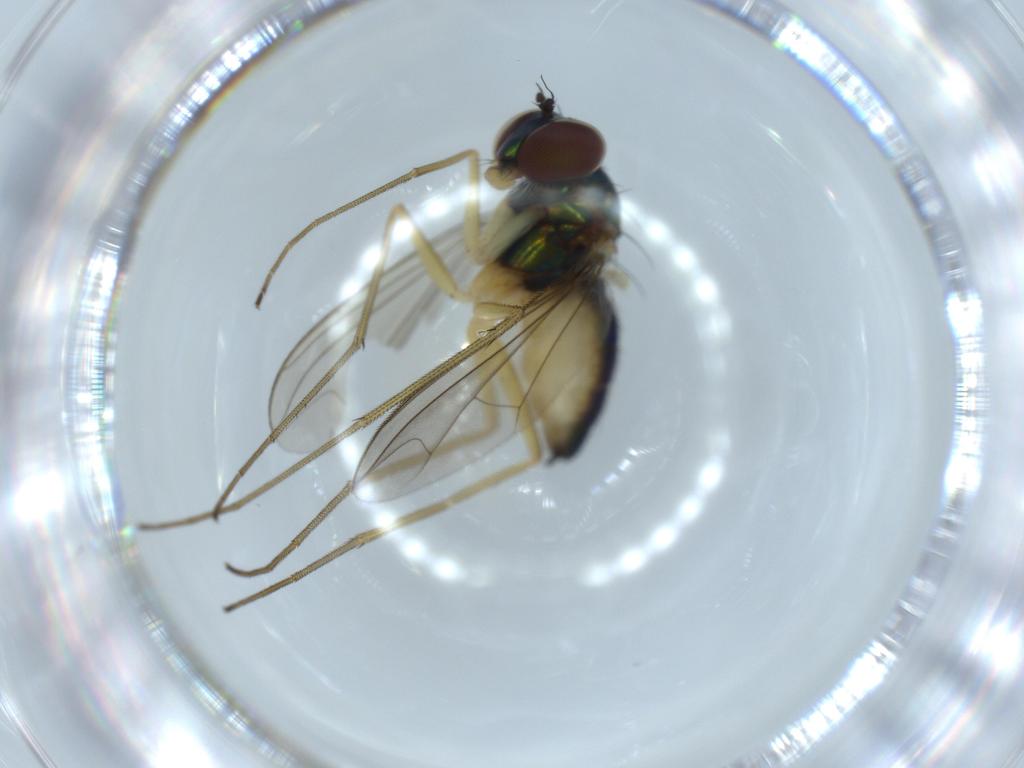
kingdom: Animalia
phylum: Arthropoda
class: Insecta
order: Diptera
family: Dolichopodidae
